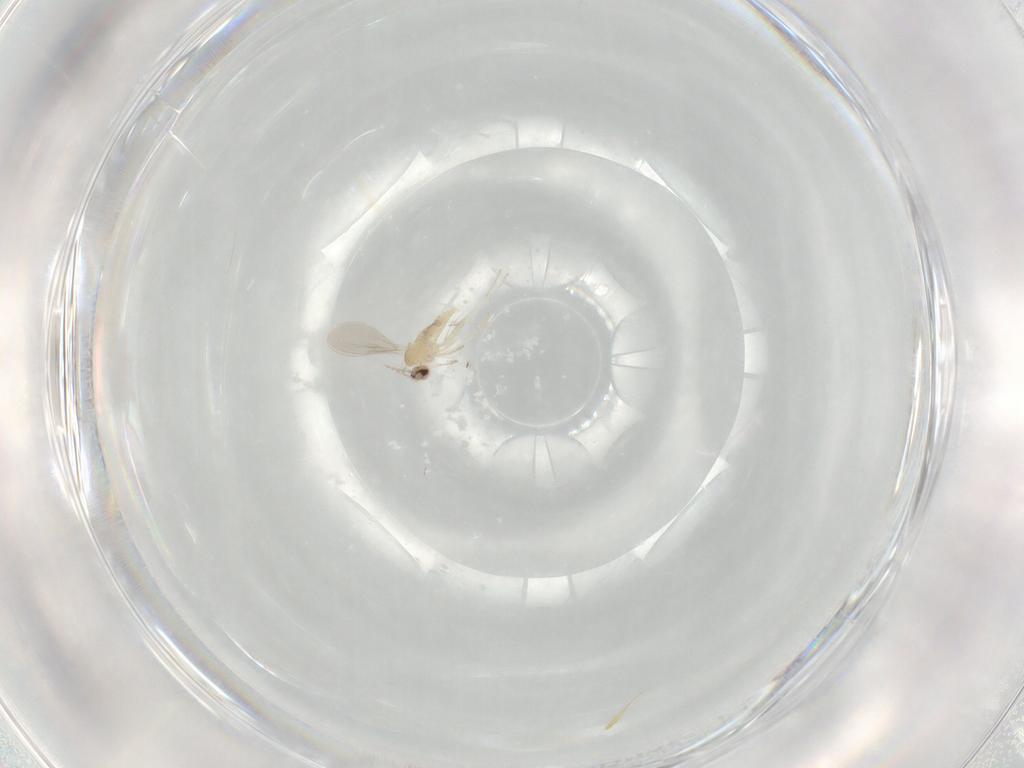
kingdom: Animalia
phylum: Arthropoda
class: Insecta
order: Diptera
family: Cecidomyiidae
